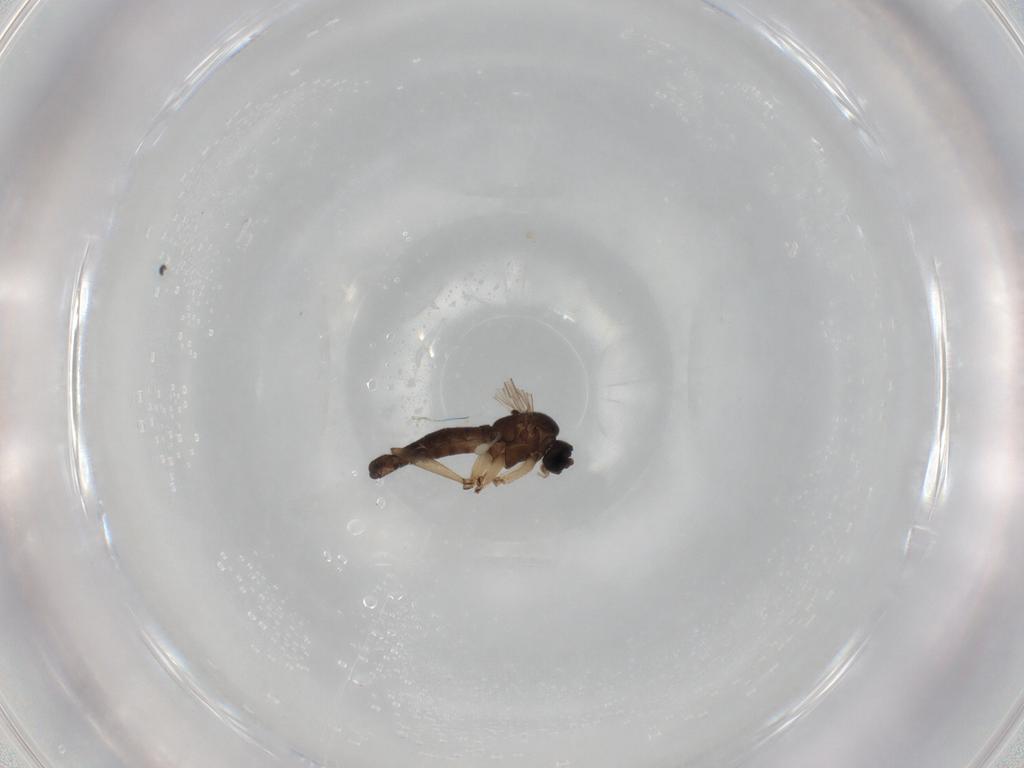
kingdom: Animalia
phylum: Arthropoda
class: Insecta
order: Diptera
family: Sciaridae
